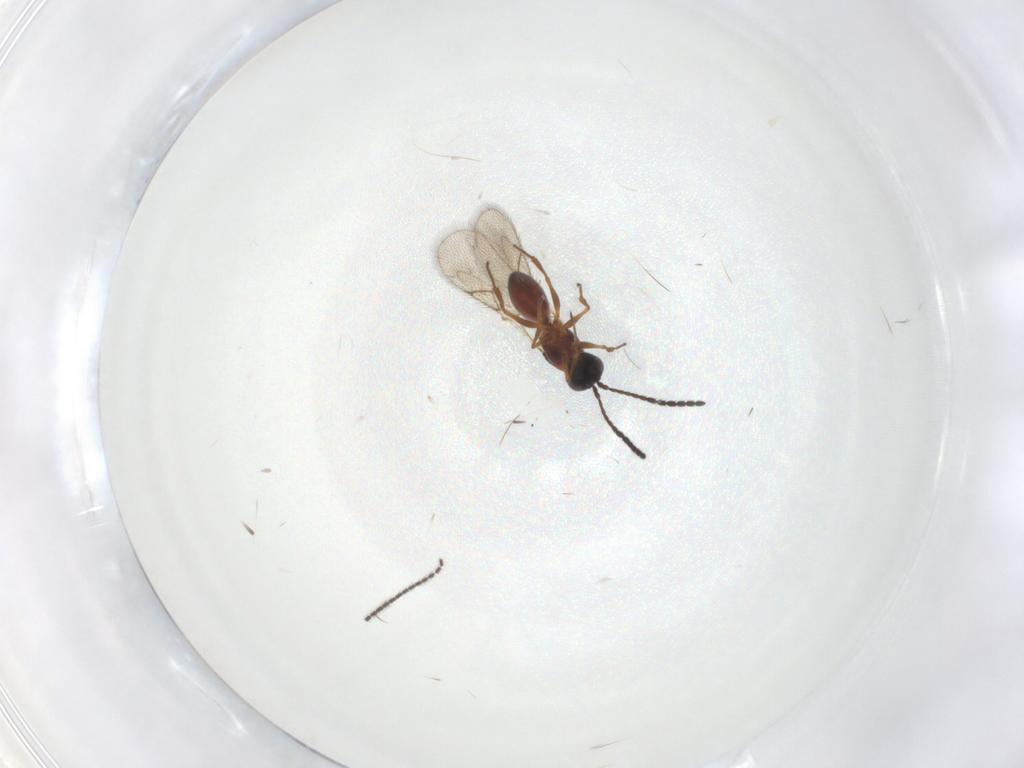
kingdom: Animalia
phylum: Arthropoda
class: Insecta
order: Hymenoptera
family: Figitidae
